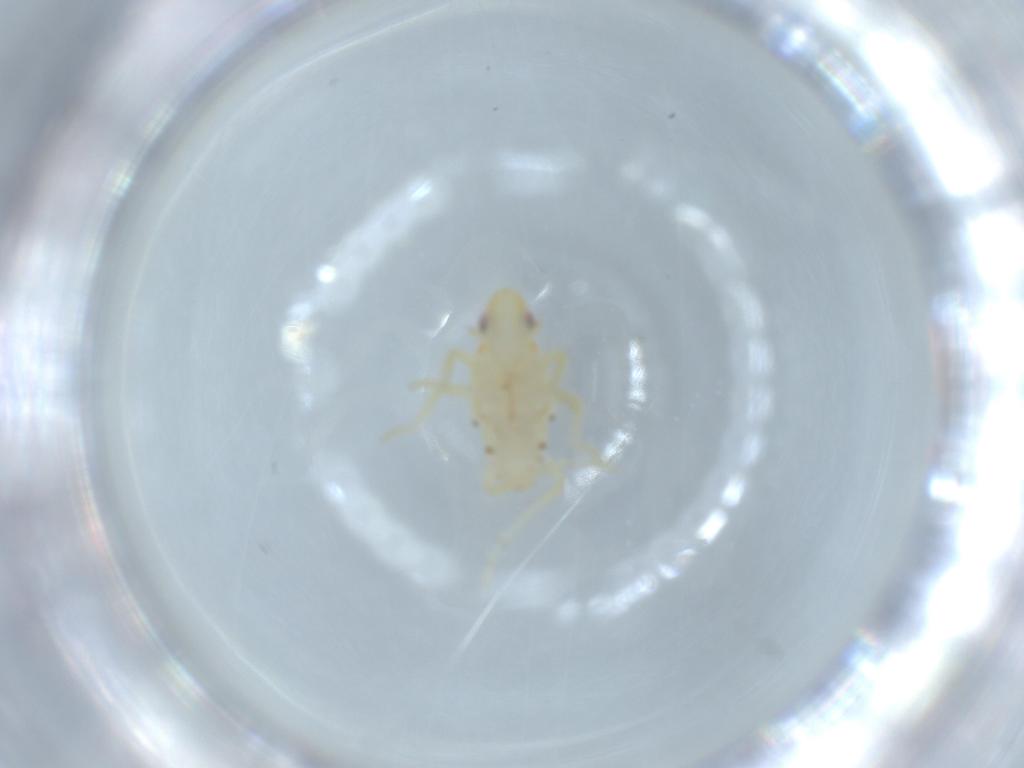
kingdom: Animalia
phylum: Arthropoda
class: Insecta
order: Hemiptera
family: Tropiduchidae
